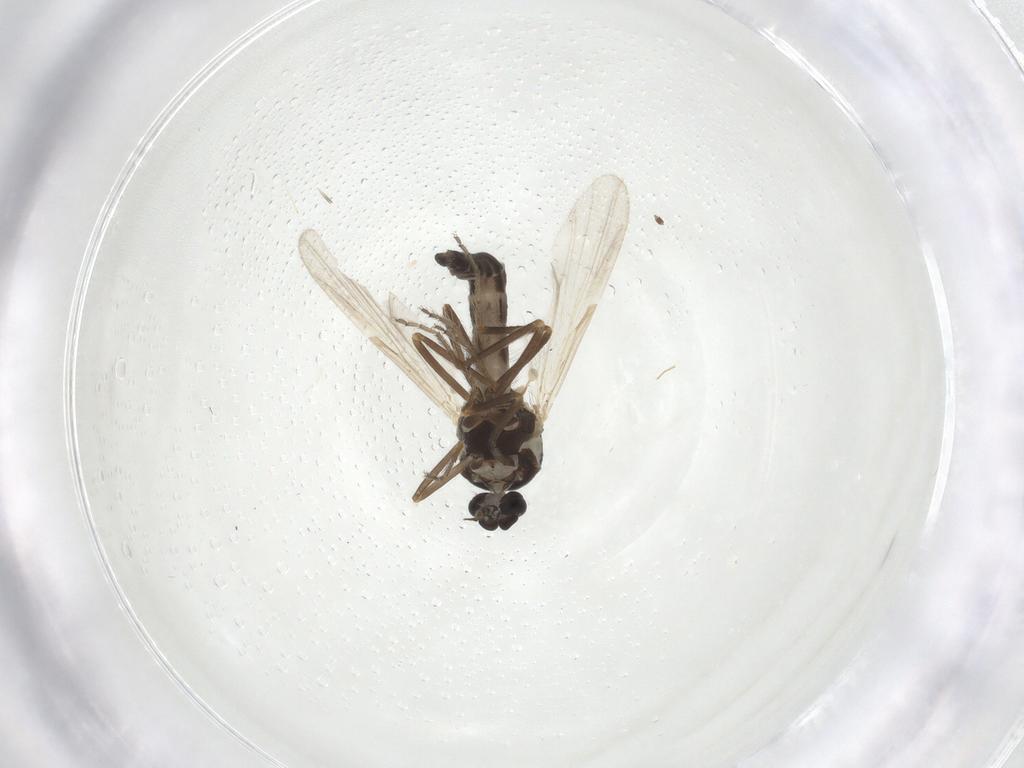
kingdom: Animalia
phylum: Arthropoda
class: Insecta
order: Diptera
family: Ceratopogonidae
